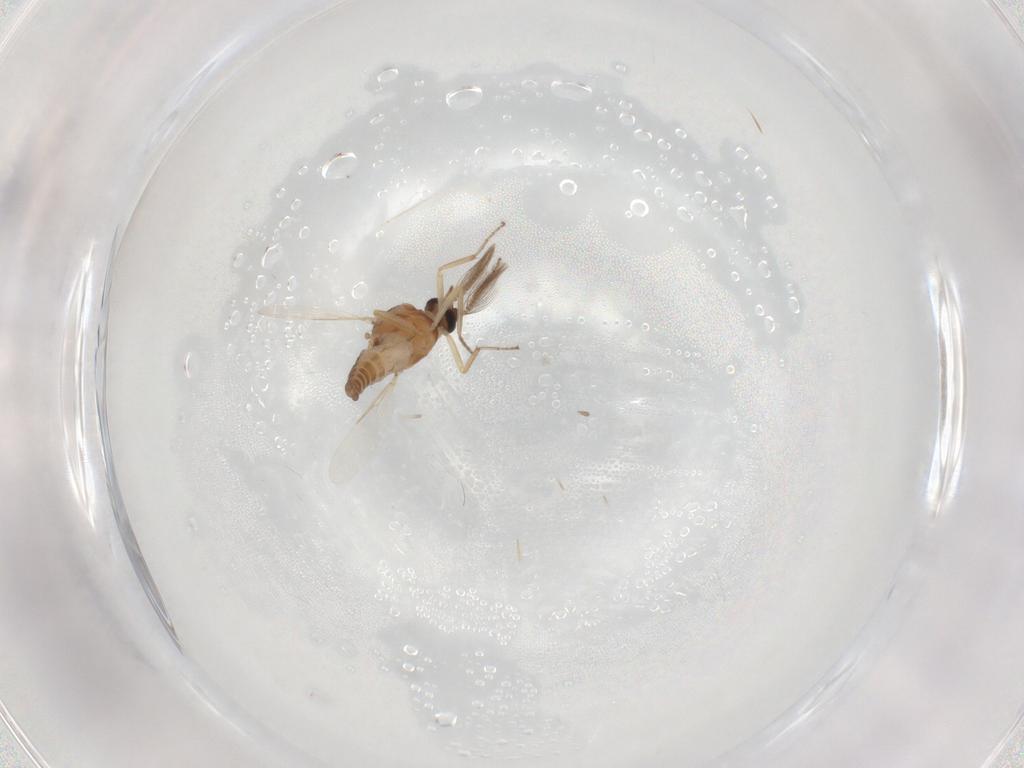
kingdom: Animalia
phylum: Arthropoda
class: Insecta
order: Diptera
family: Ceratopogonidae
